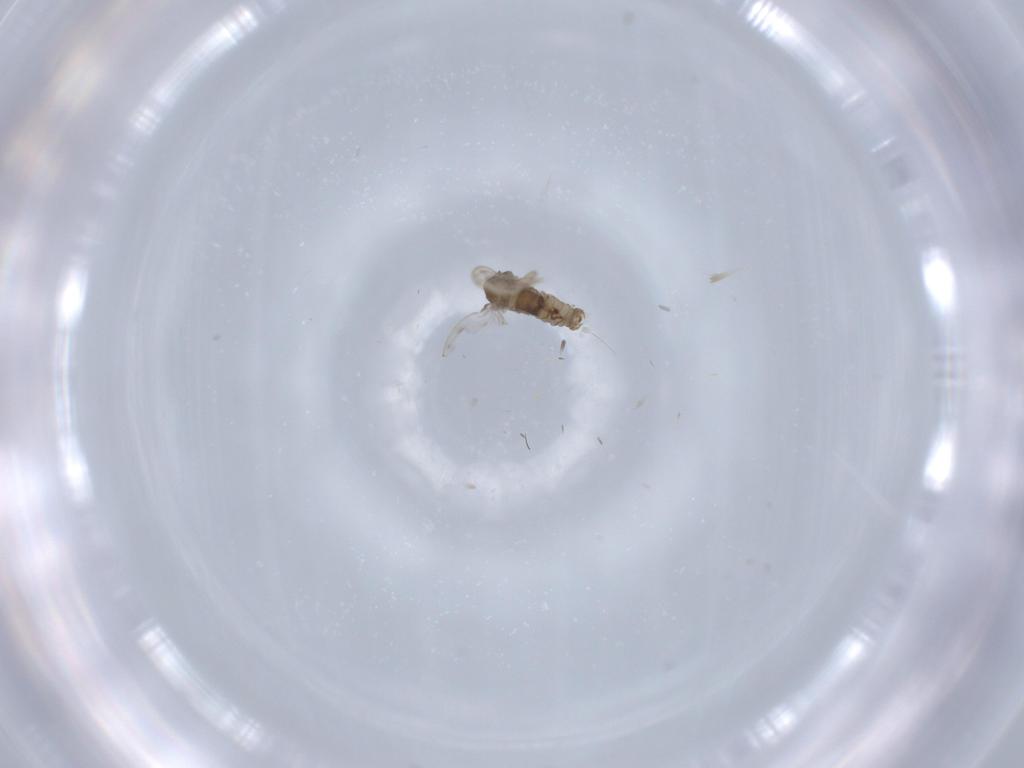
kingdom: Animalia
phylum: Arthropoda
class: Insecta
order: Diptera
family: Psychodidae
